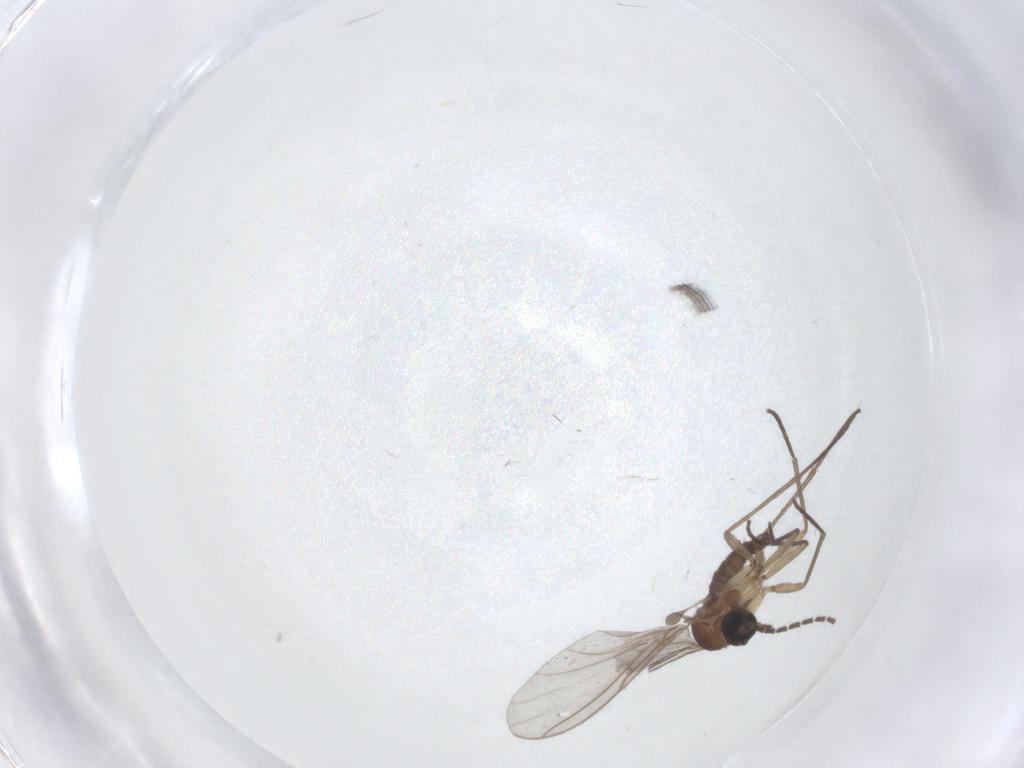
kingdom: Animalia
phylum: Arthropoda
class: Insecta
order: Diptera
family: Sciaridae
